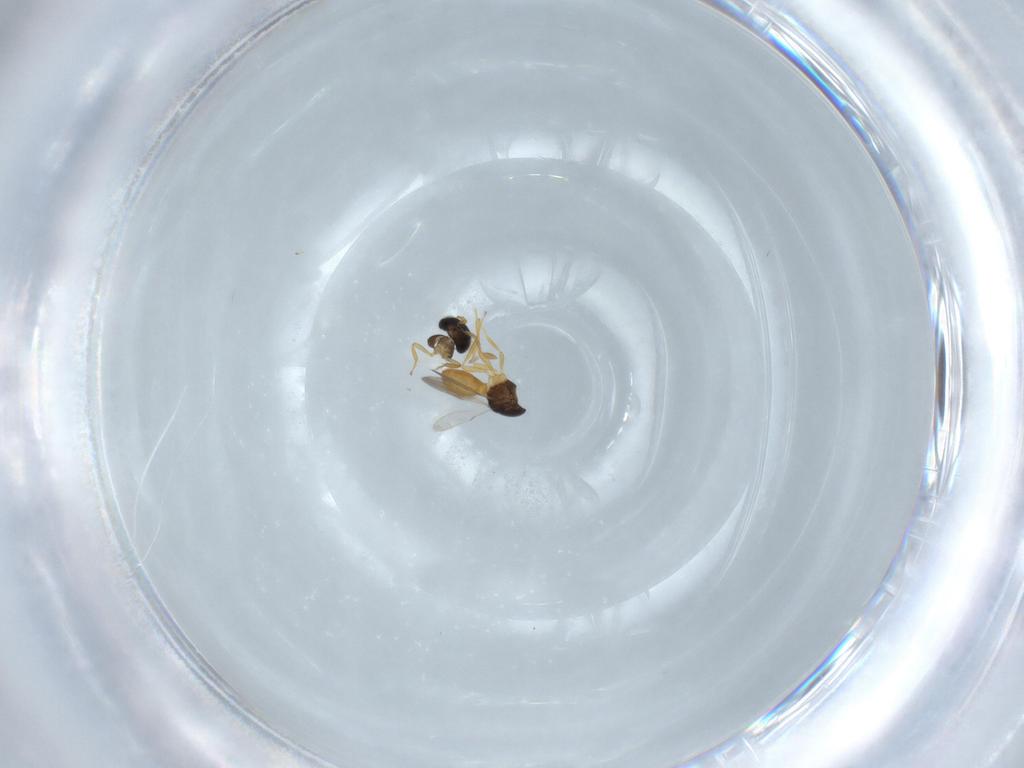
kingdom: Animalia
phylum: Arthropoda
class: Insecta
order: Hymenoptera
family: Scelionidae
